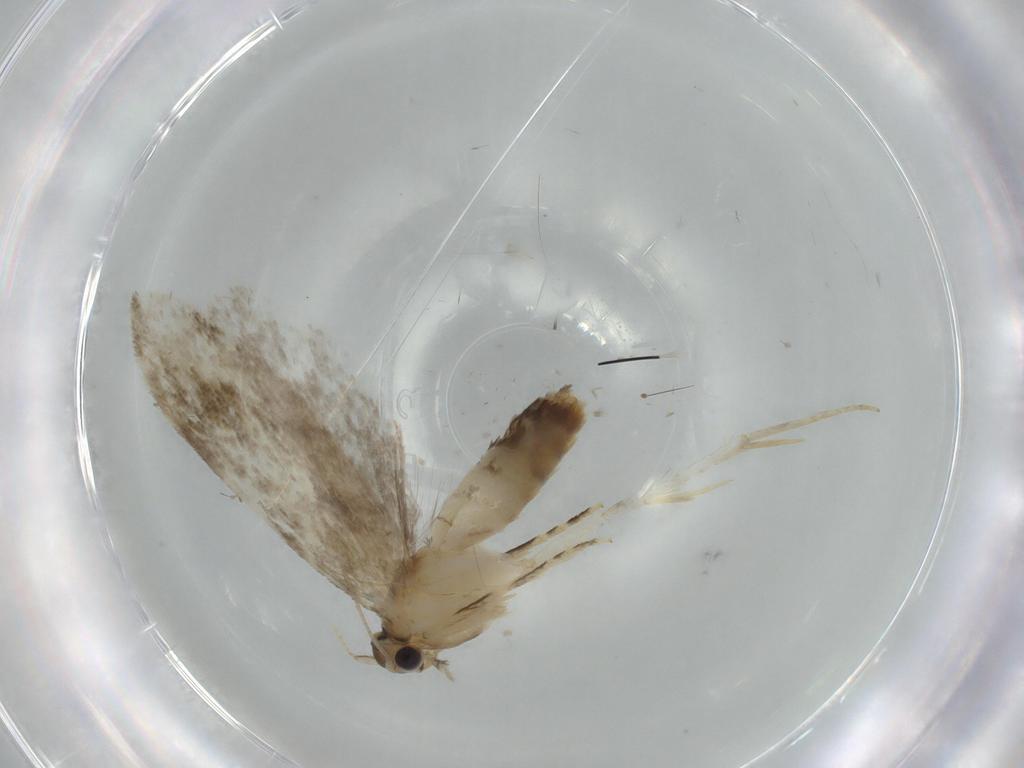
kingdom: Animalia
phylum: Arthropoda
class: Insecta
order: Lepidoptera
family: Tineidae
